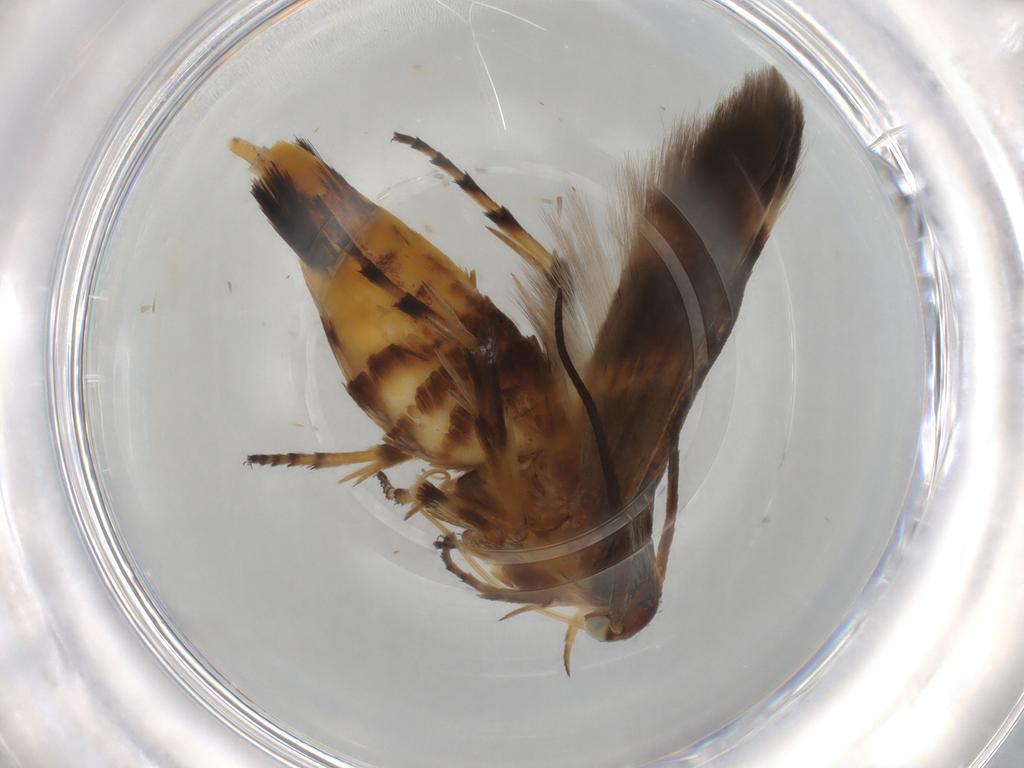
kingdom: Animalia
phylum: Arthropoda
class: Insecta
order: Lepidoptera
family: Scythrididae
